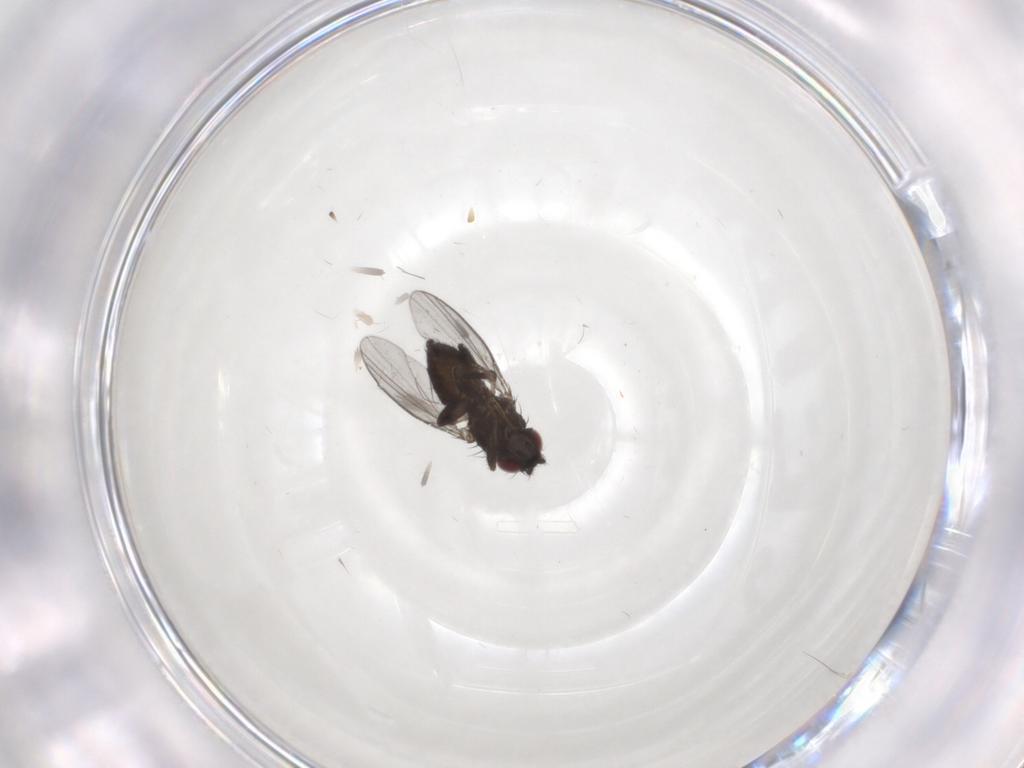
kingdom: Animalia
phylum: Arthropoda
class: Insecta
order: Diptera
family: Milichiidae
